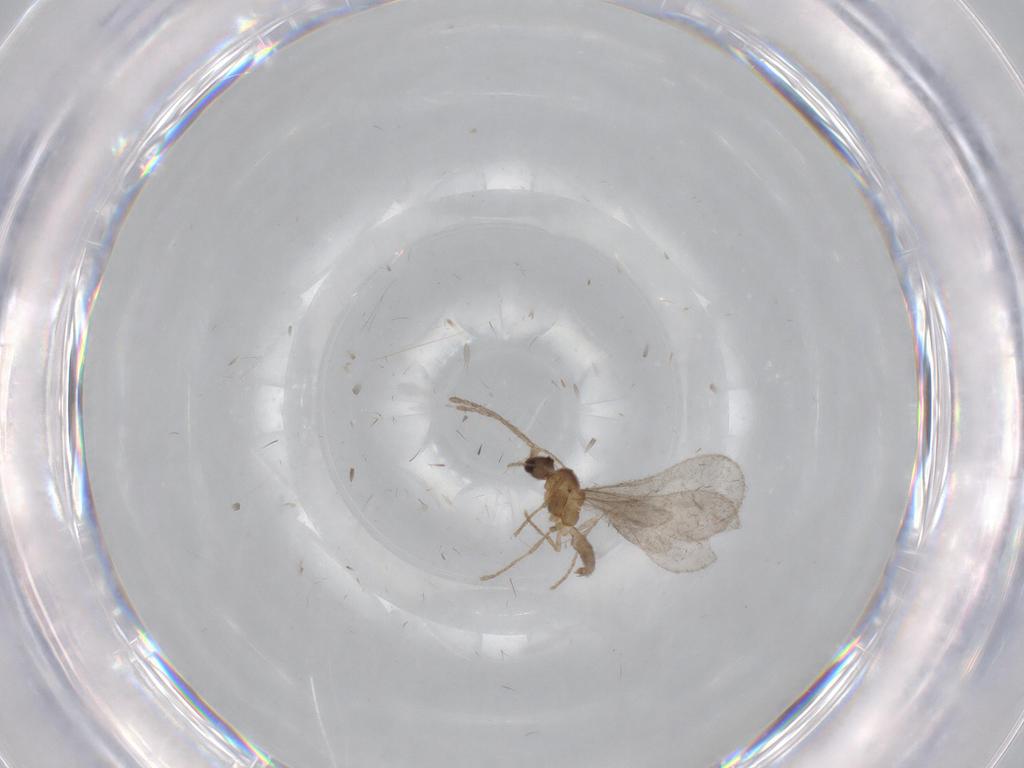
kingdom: Animalia
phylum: Arthropoda
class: Insecta
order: Hymenoptera
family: Formicidae
